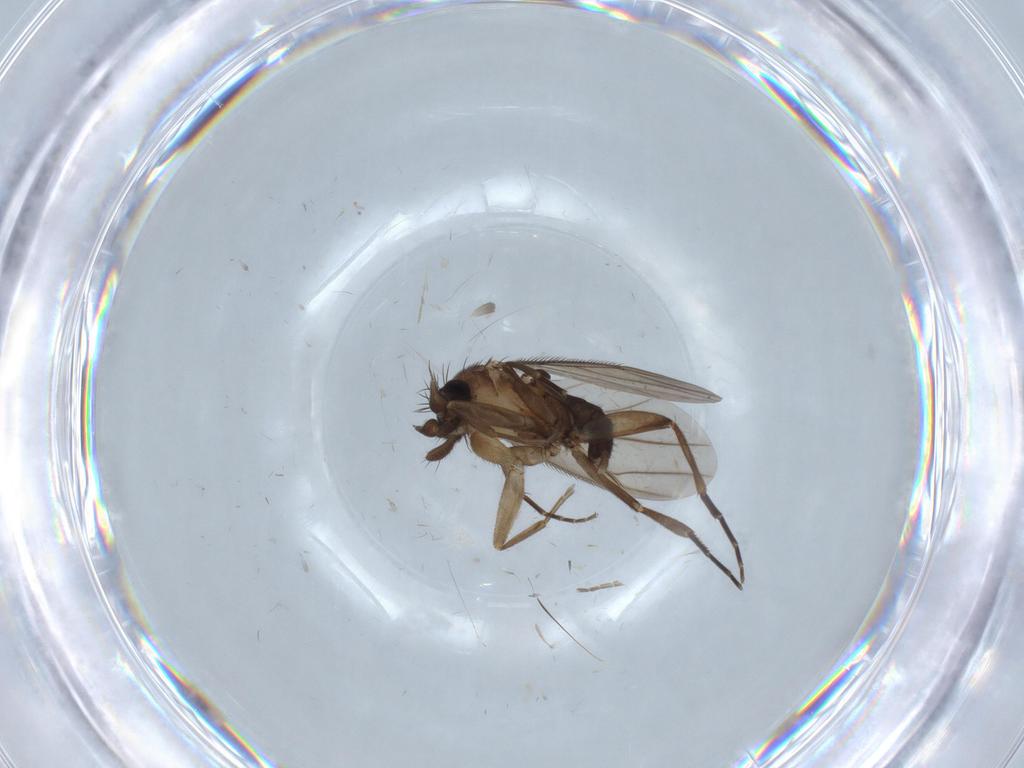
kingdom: Animalia
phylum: Arthropoda
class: Insecta
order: Diptera
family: Phoridae
